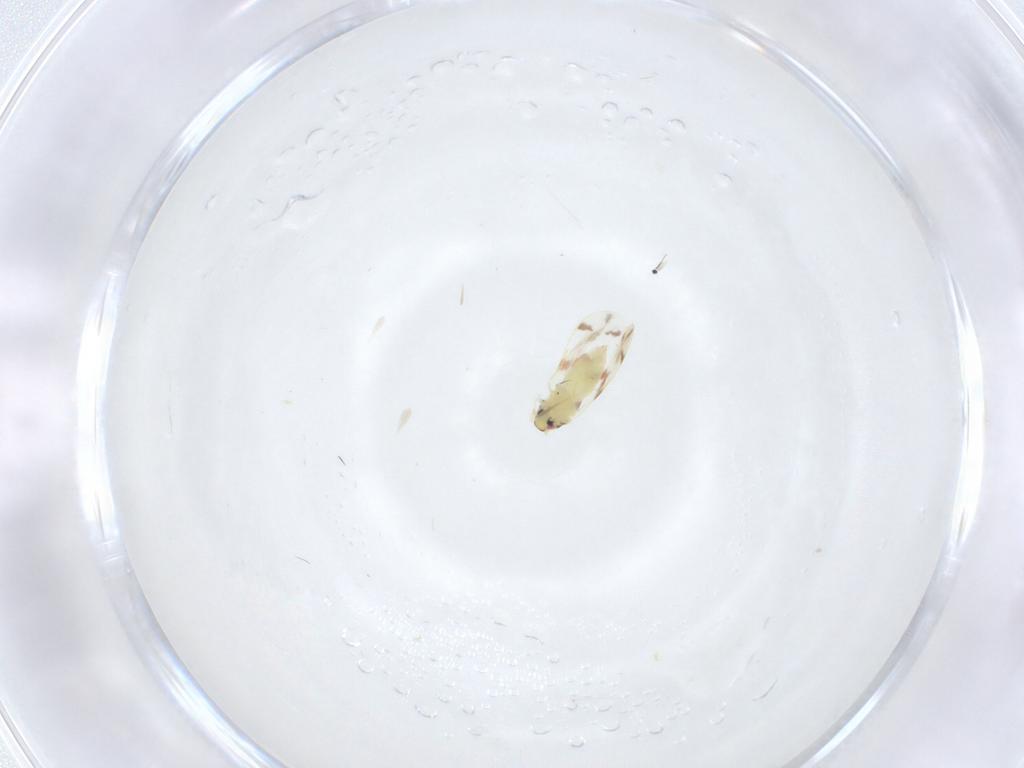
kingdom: Animalia
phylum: Arthropoda
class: Insecta
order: Hemiptera
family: Aleyrodidae
